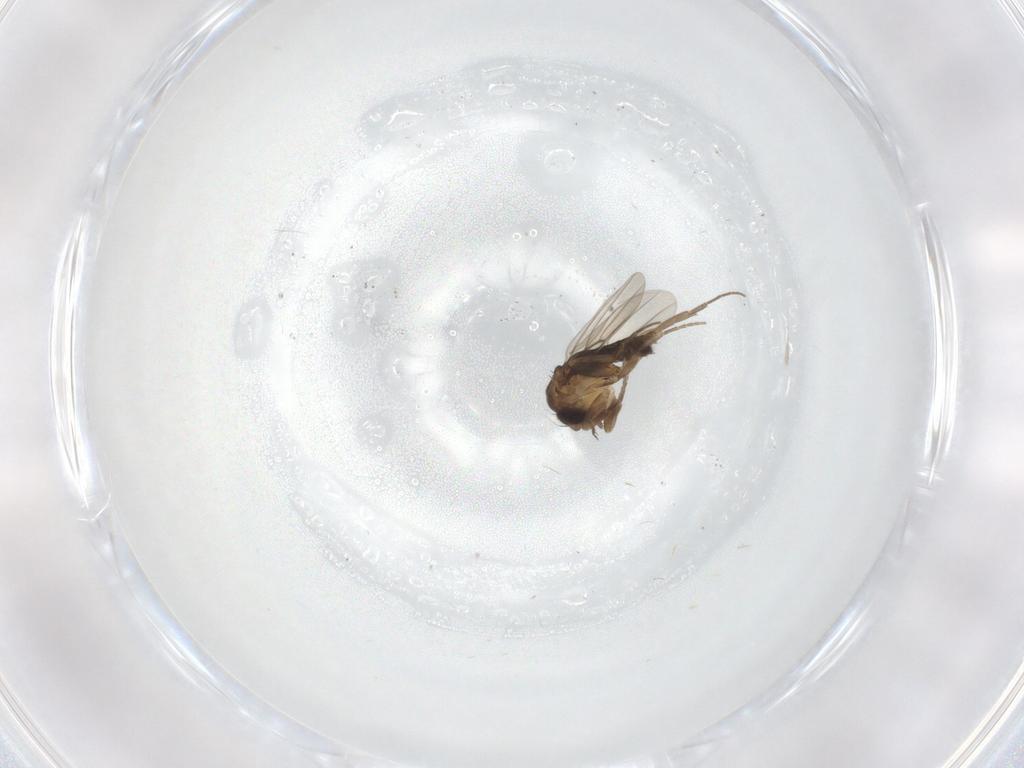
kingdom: Animalia
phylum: Arthropoda
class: Insecta
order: Diptera
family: Phoridae
